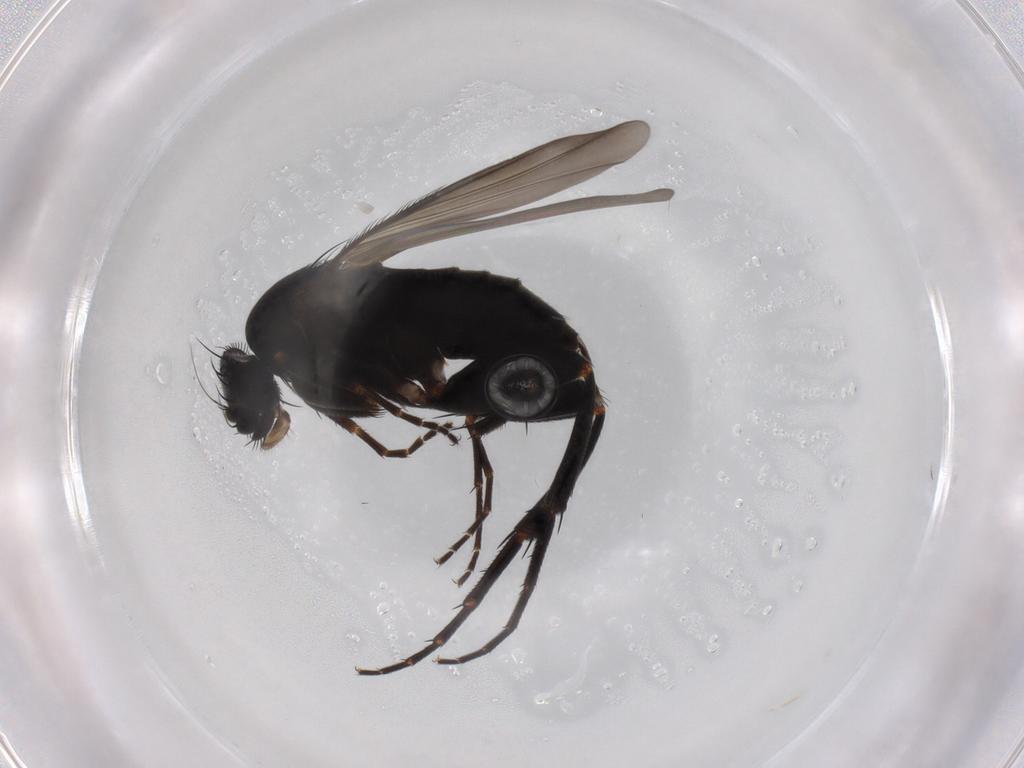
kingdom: Animalia
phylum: Arthropoda
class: Insecta
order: Diptera
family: Phoridae
